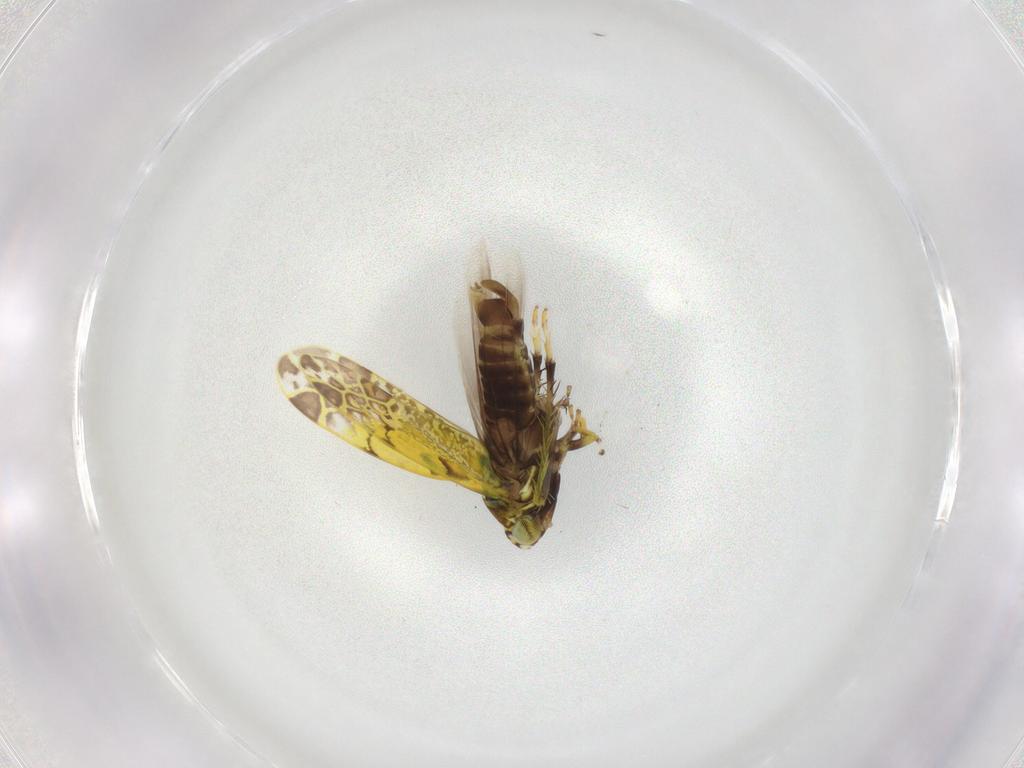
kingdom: Animalia
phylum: Arthropoda
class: Insecta
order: Hemiptera
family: Cicadellidae
